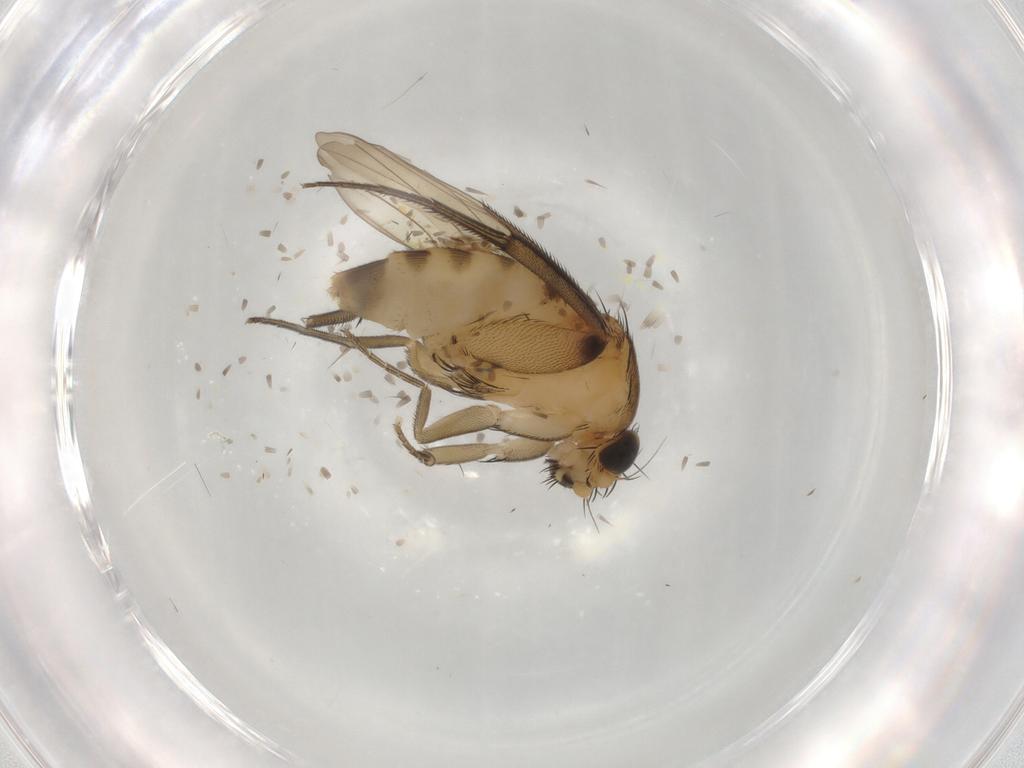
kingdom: Animalia
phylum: Arthropoda
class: Insecta
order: Diptera
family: Phoridae
